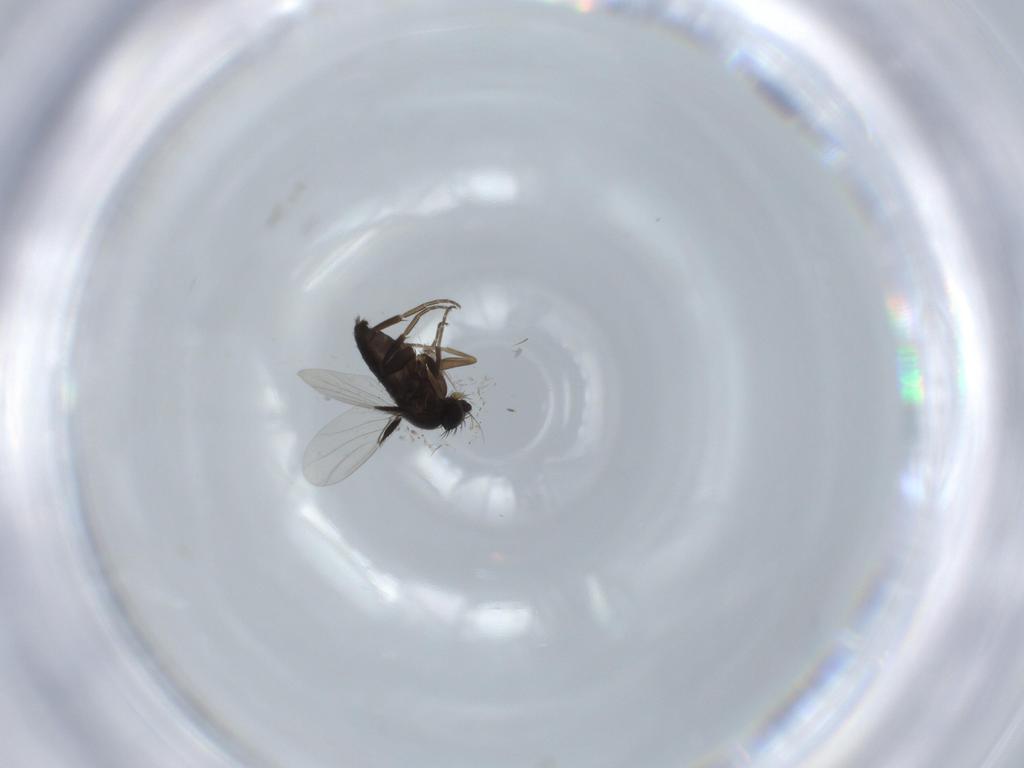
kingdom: Animalia
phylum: Arthropoda
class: Insecta
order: Diptera
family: Phoridae
